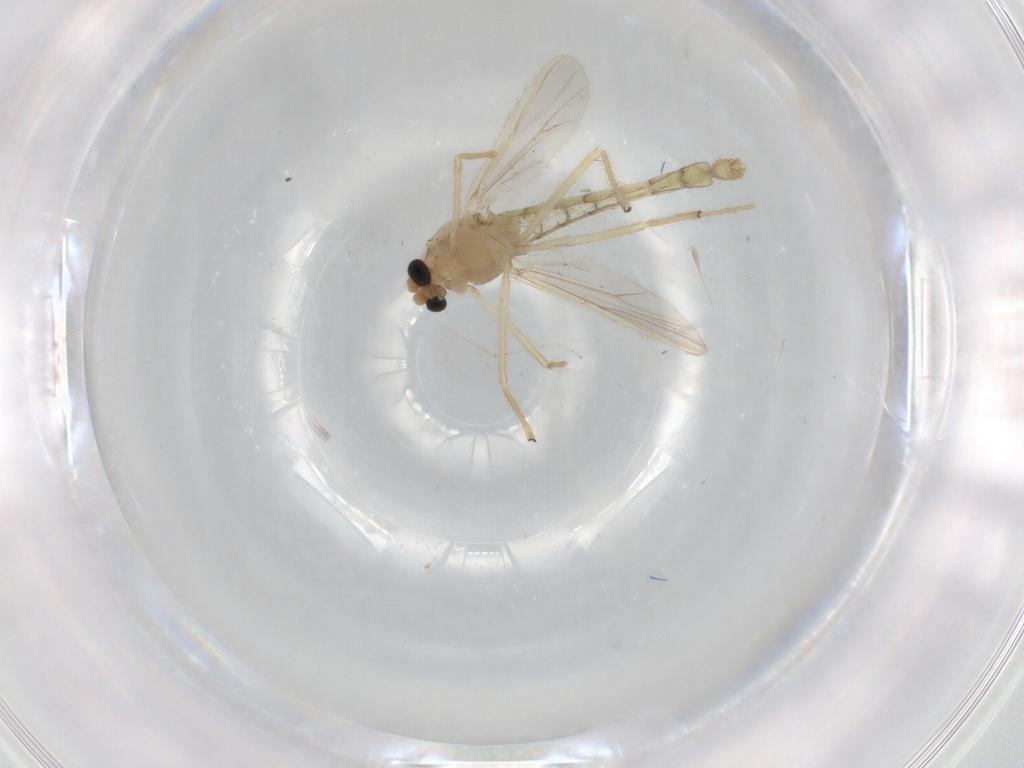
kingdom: Animalia
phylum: Arthropoda
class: Insecta
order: Diptera
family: Chironomidae
